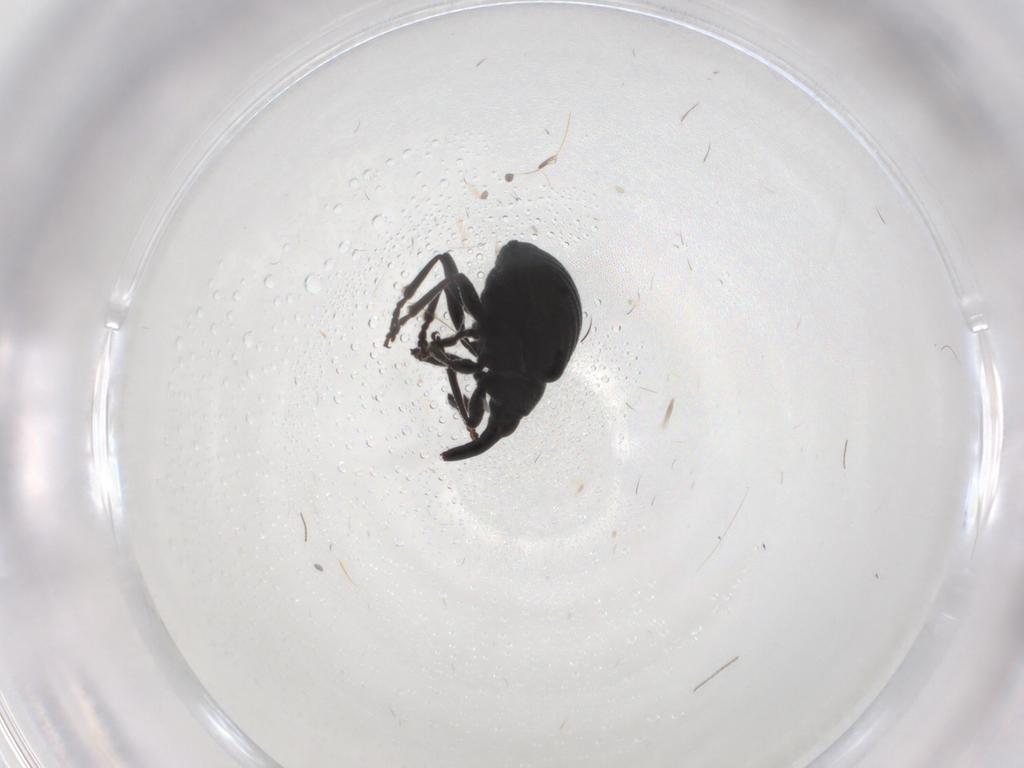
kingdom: Animalia
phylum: Arthropoda
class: Insecta
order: Coleoptera
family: Brentidae
